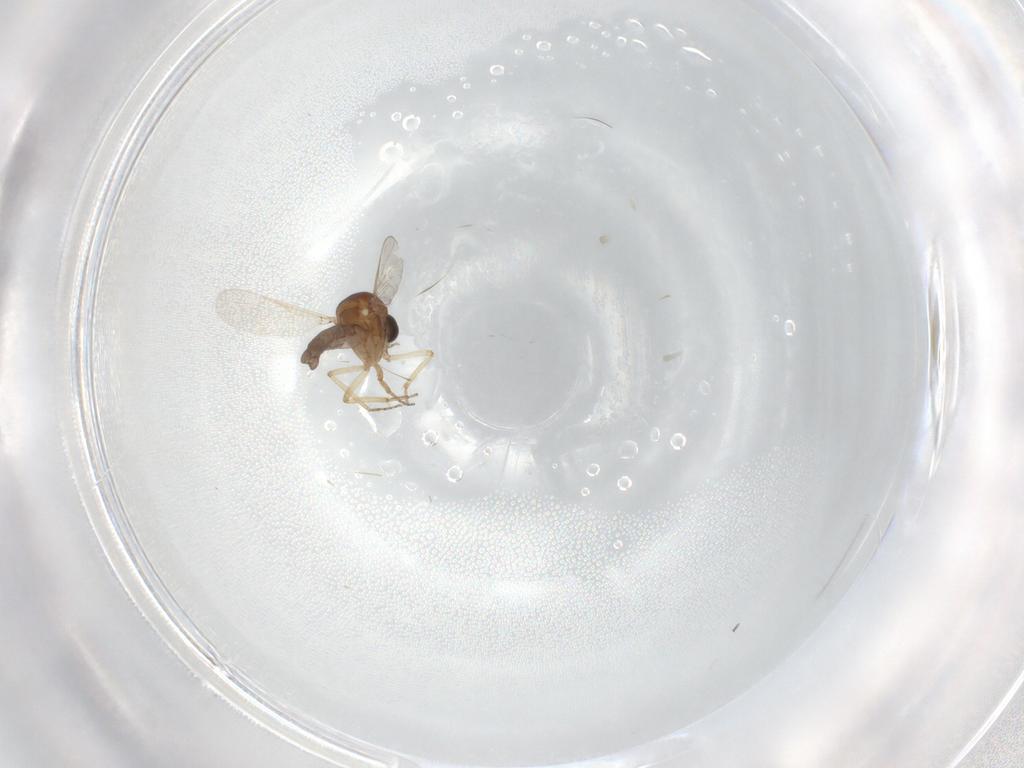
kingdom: Animalia
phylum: Arthropoda
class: Insecta
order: Diptera
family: Ceratopogonidae
